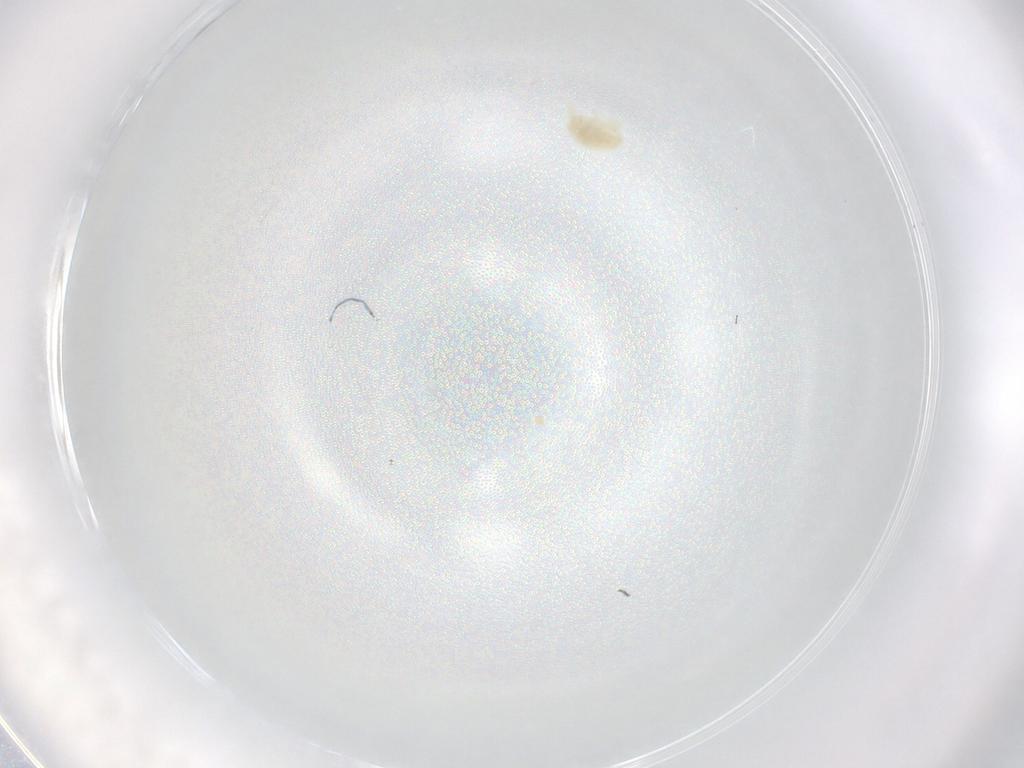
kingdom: Animalia
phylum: Arthropoda
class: Arachnida
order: Trombidiformes
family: Eupodidae
